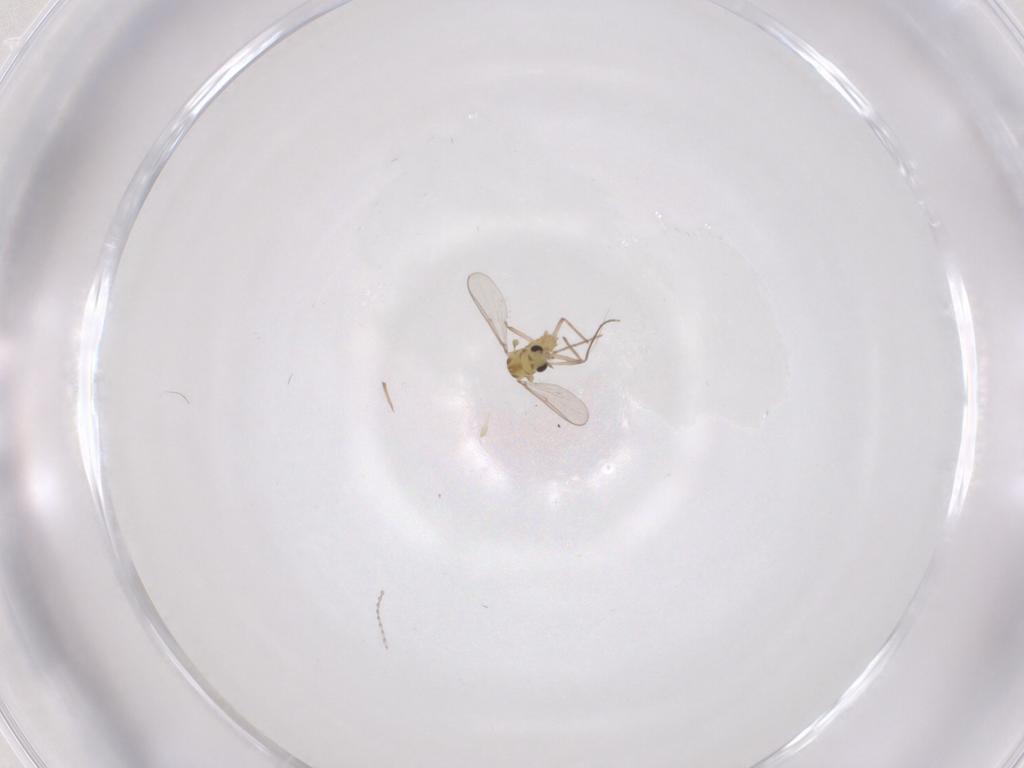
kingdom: Animalia
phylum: Arthropoda
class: Insecta
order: Diptera
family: Cecidomyiidae
